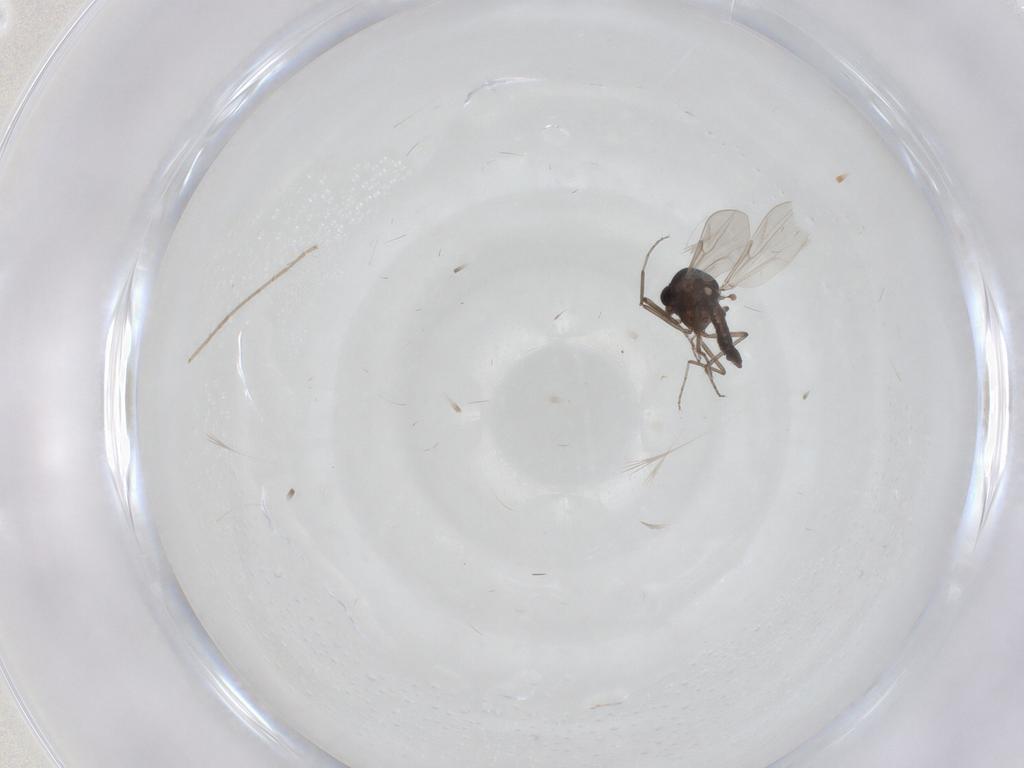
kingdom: Animalia
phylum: Arthropoda
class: Insecta
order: Diptera
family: Chironomidae
